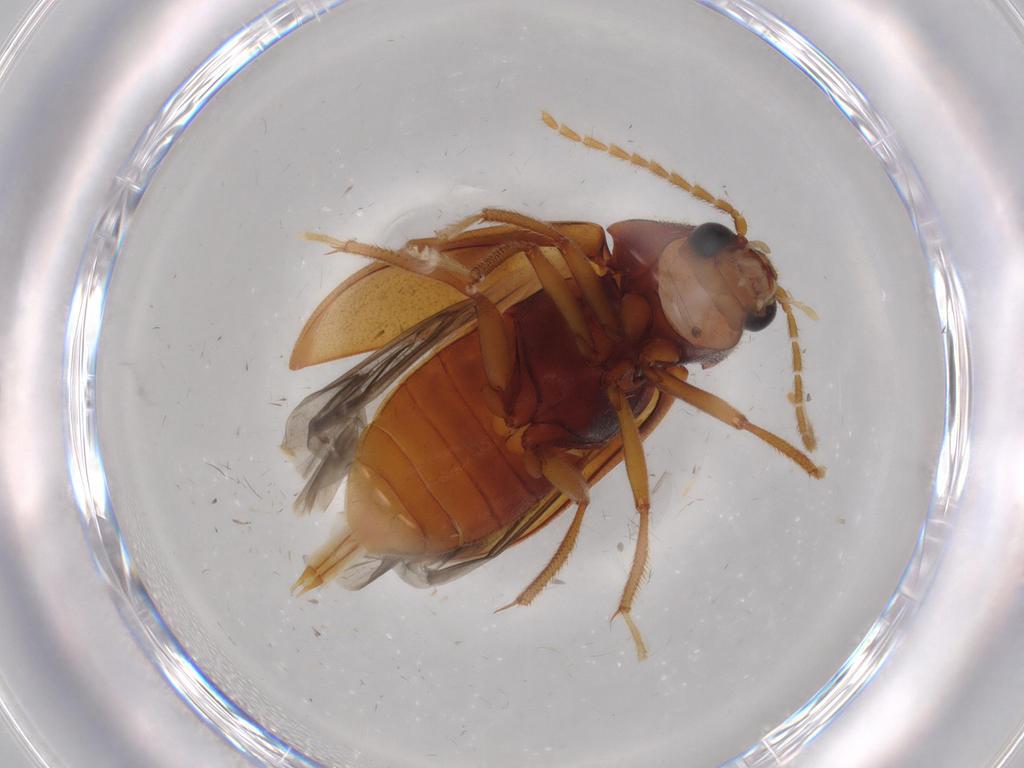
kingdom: Animalia
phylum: Arthropoda
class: Insecta
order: Coleoptera
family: Ptilodactylidae
